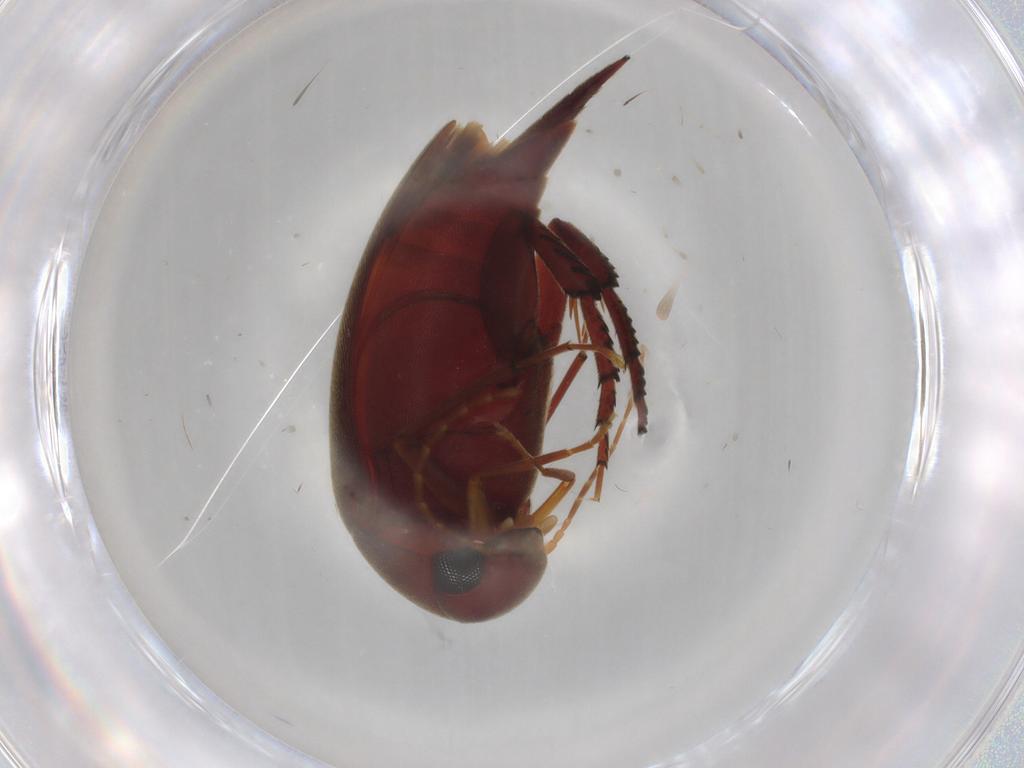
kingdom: Animalia
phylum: Arthropoda
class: Insecta
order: Coleoptera
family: Mordellidae
